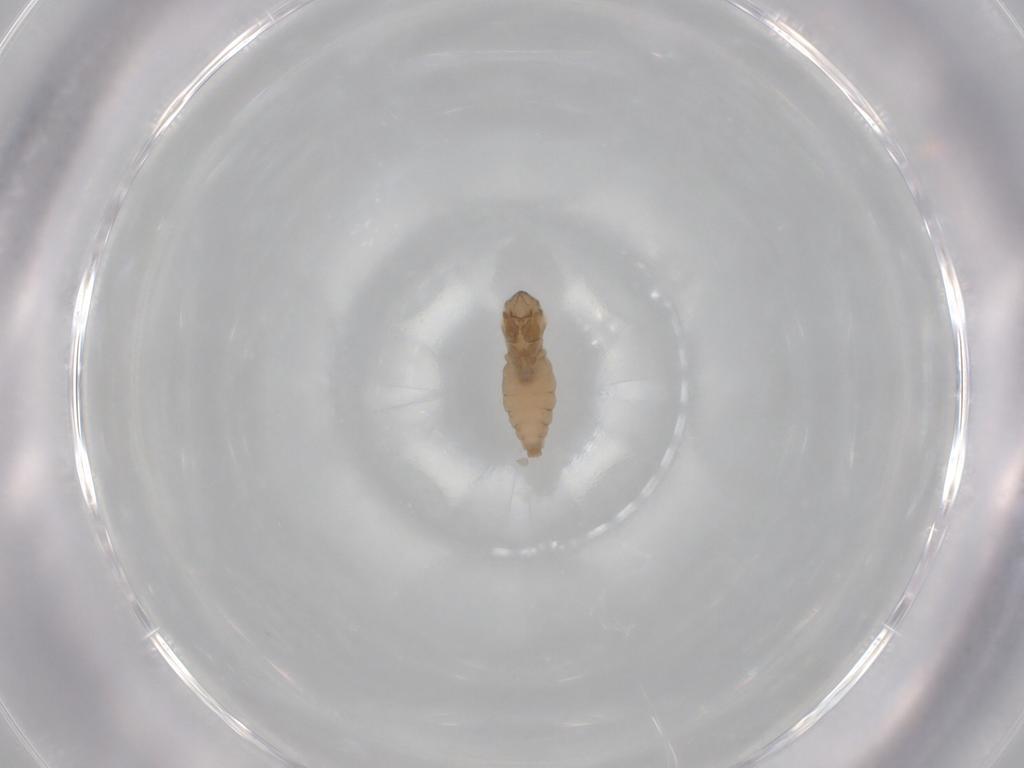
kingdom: Animalia
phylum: Arthropoda
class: Insecta
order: Diptera
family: Cecidomyiidae
